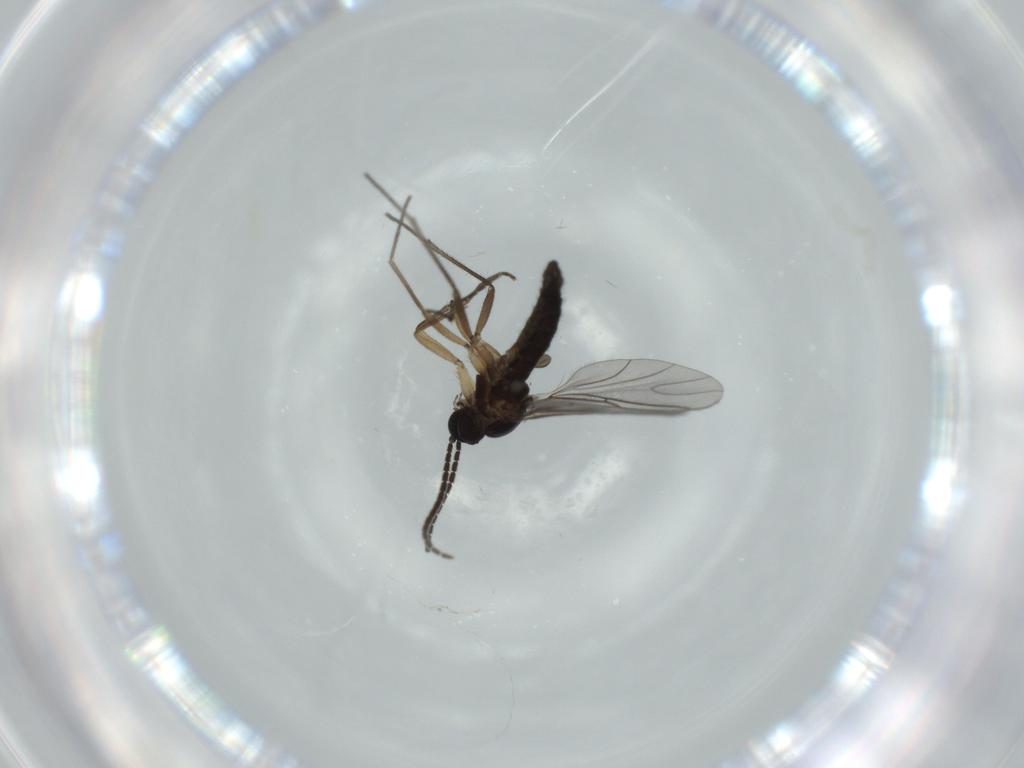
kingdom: Animalia
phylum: Arthropoda
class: Insecta
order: Diptera
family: Sciaridae
